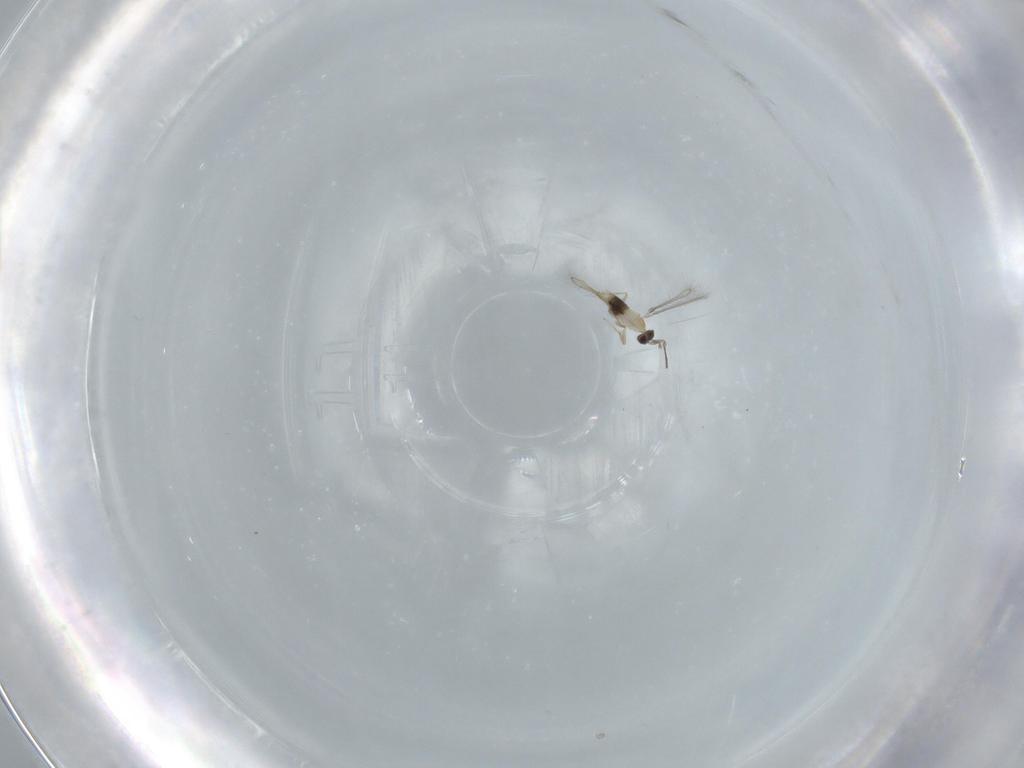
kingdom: Animalia
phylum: Arthropoda
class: Insecta
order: Hymenoptera
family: Mymaridae
